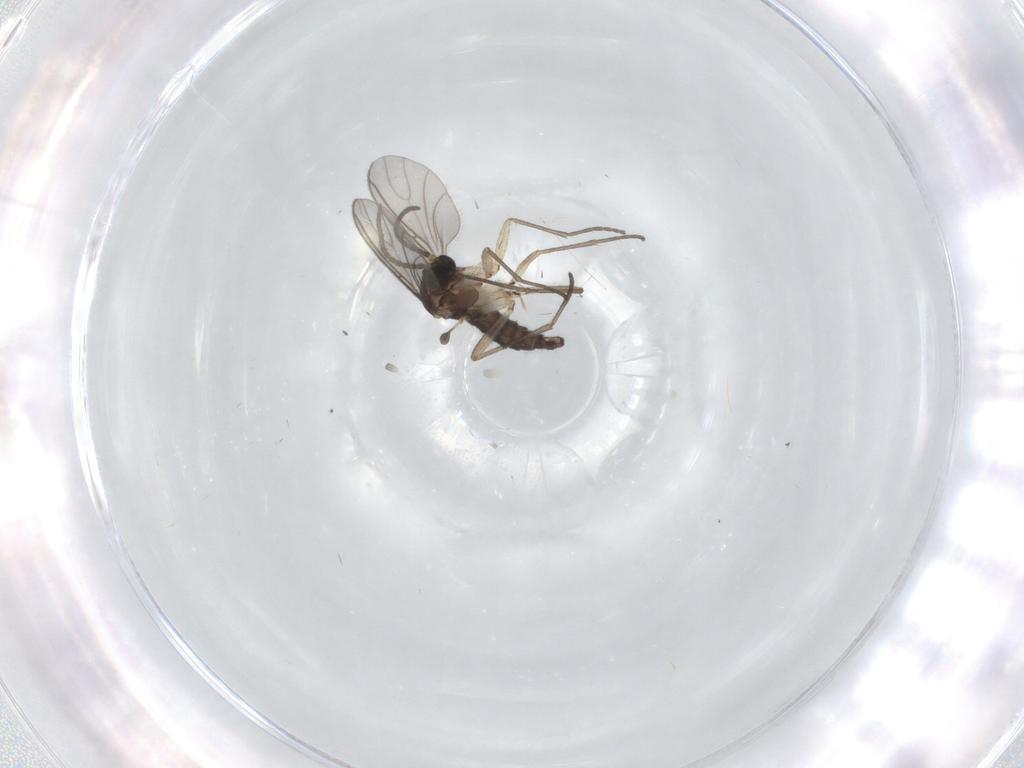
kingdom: Animalia
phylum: Arthropoda
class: Insecta
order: Diptera
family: Sciaridae
